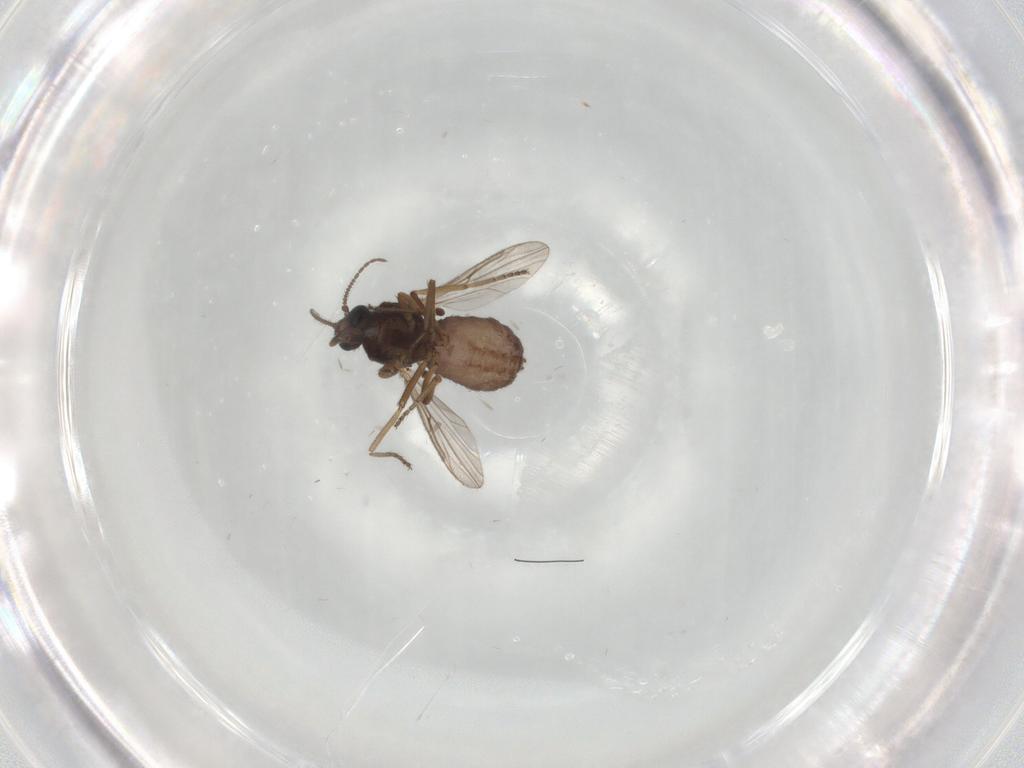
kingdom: Animalia
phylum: Arthropoda
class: Insecta
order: Diptera
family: Ceratopogonidae
